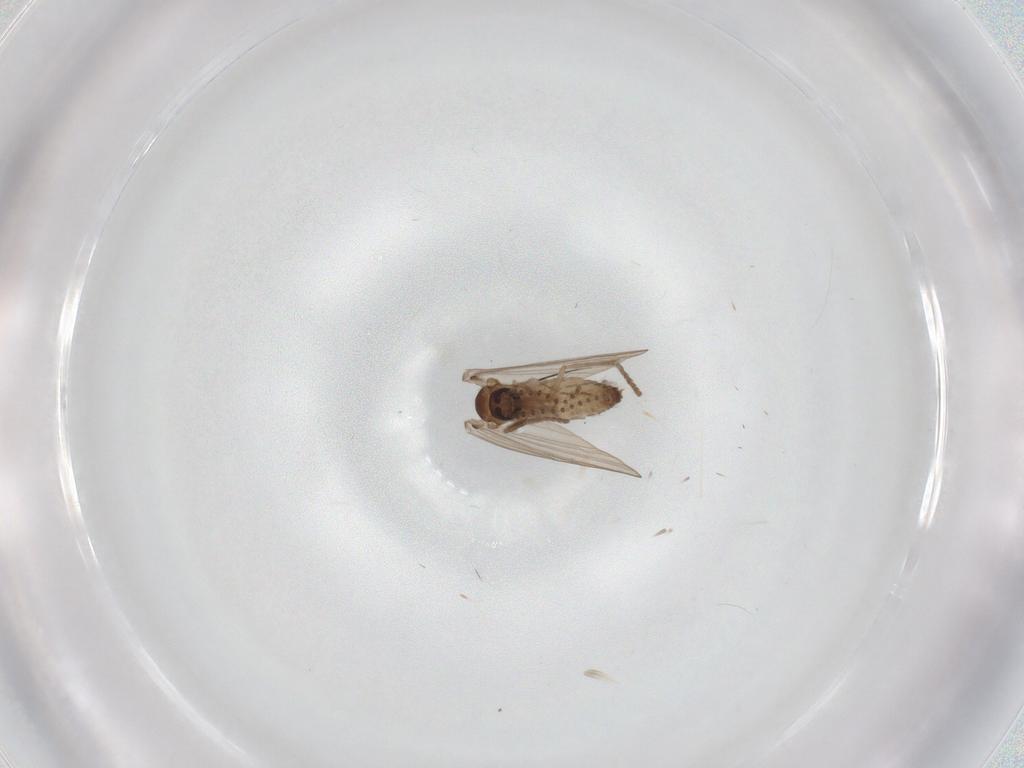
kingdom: Animalia
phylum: Arthropoda
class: Insecta
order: Diptera
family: Psychodidae
